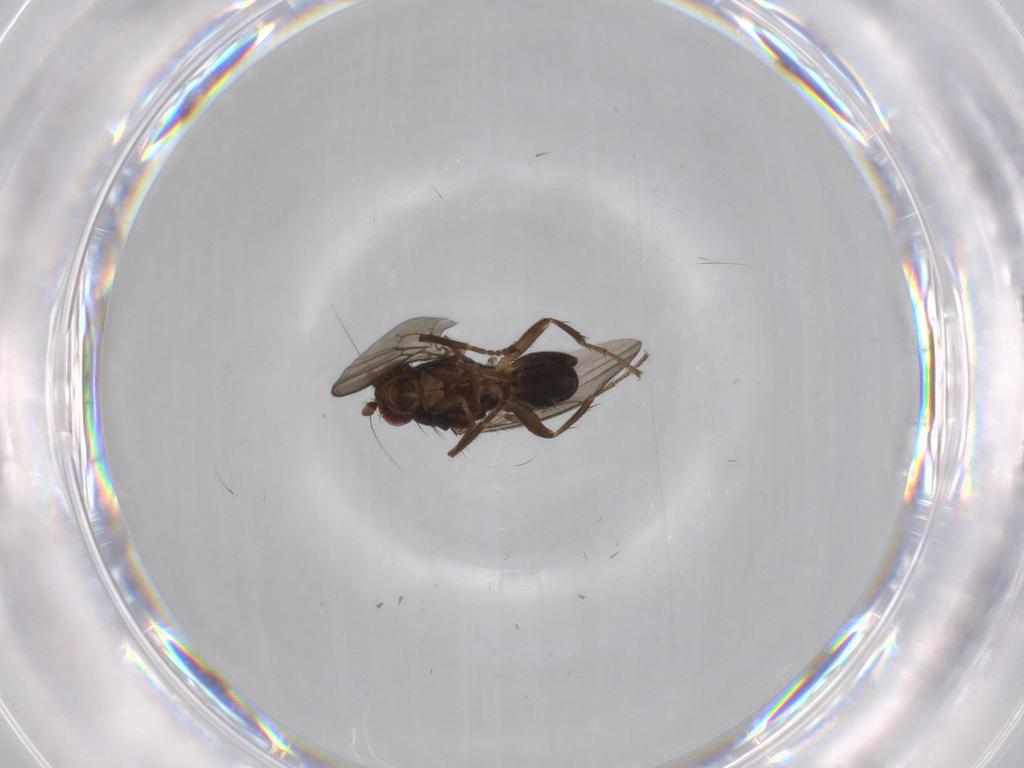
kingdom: Animalia
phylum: Arthropoda
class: Insecta
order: Diptera
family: Sphaeroceridae
